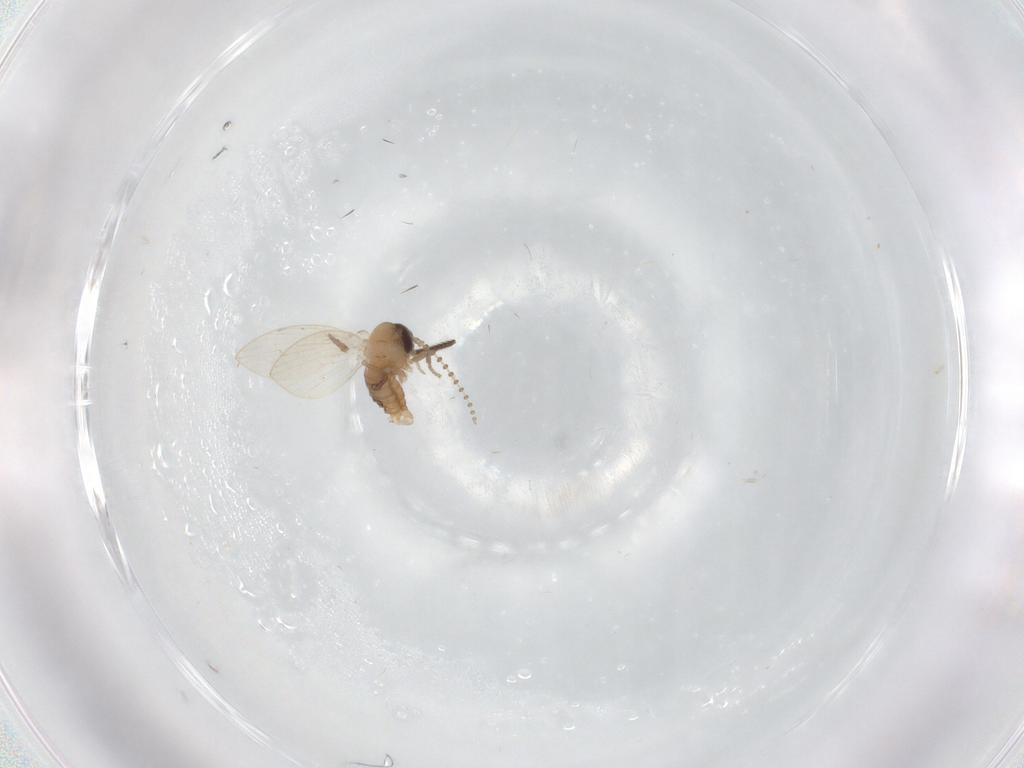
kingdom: Animalia
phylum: Arthropoda
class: Insecta
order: Diptera
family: Psychodidae
